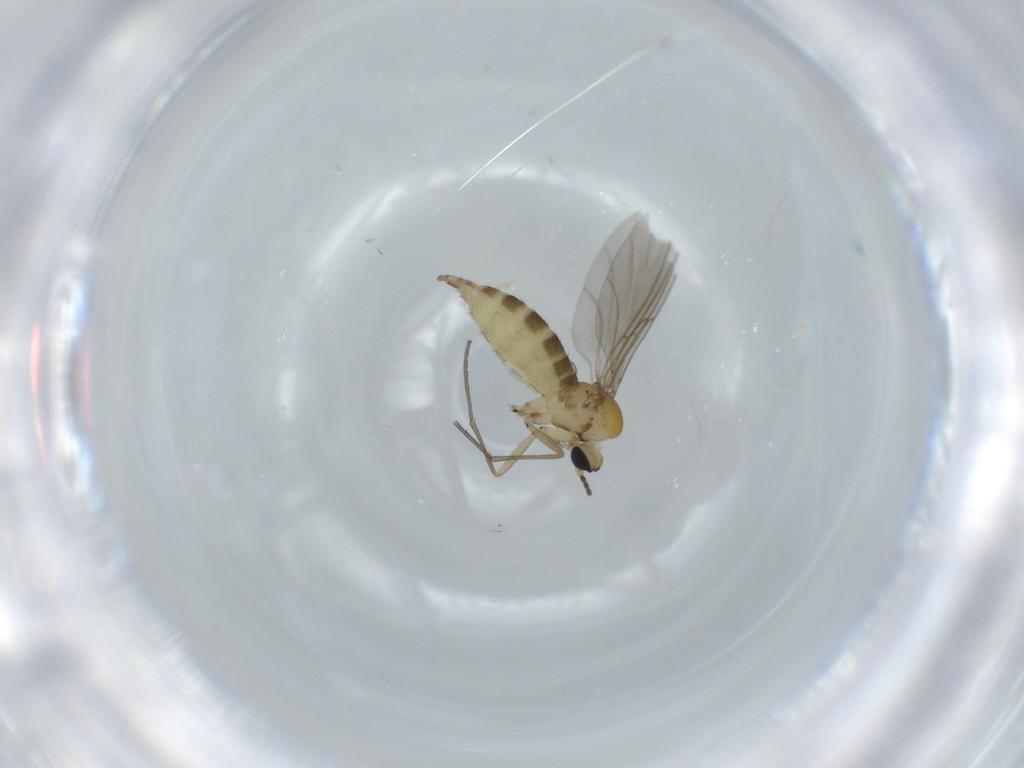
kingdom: Animalia
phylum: Arthropoda
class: Insecta
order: Diptera
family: Sciaridae
